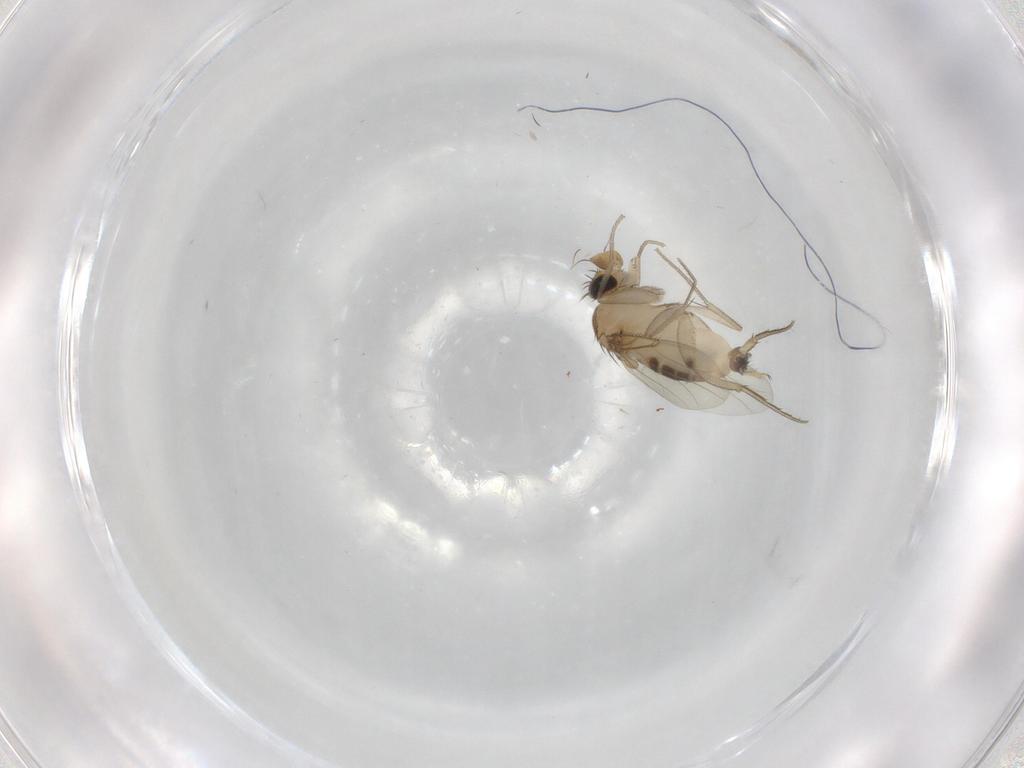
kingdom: Animalia
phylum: Arthropoda
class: Insecta
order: Diptera
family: Phoridae
